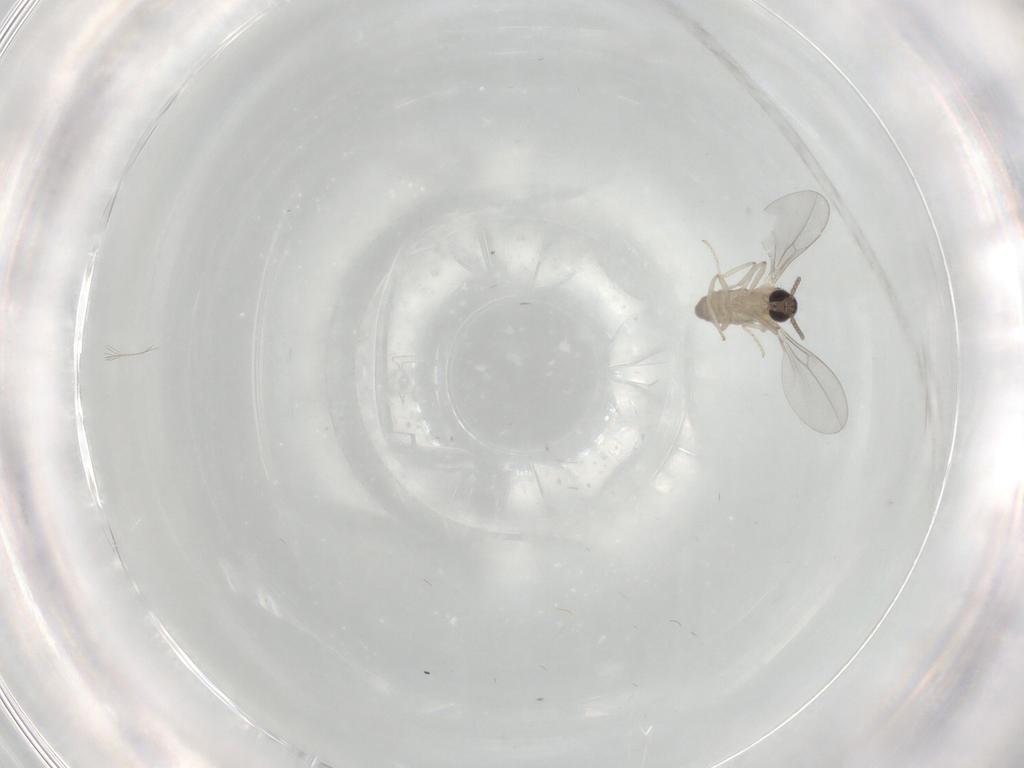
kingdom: Animalia
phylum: Arthropoda
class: Insecta
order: Diptera
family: Cecidomyiidae
